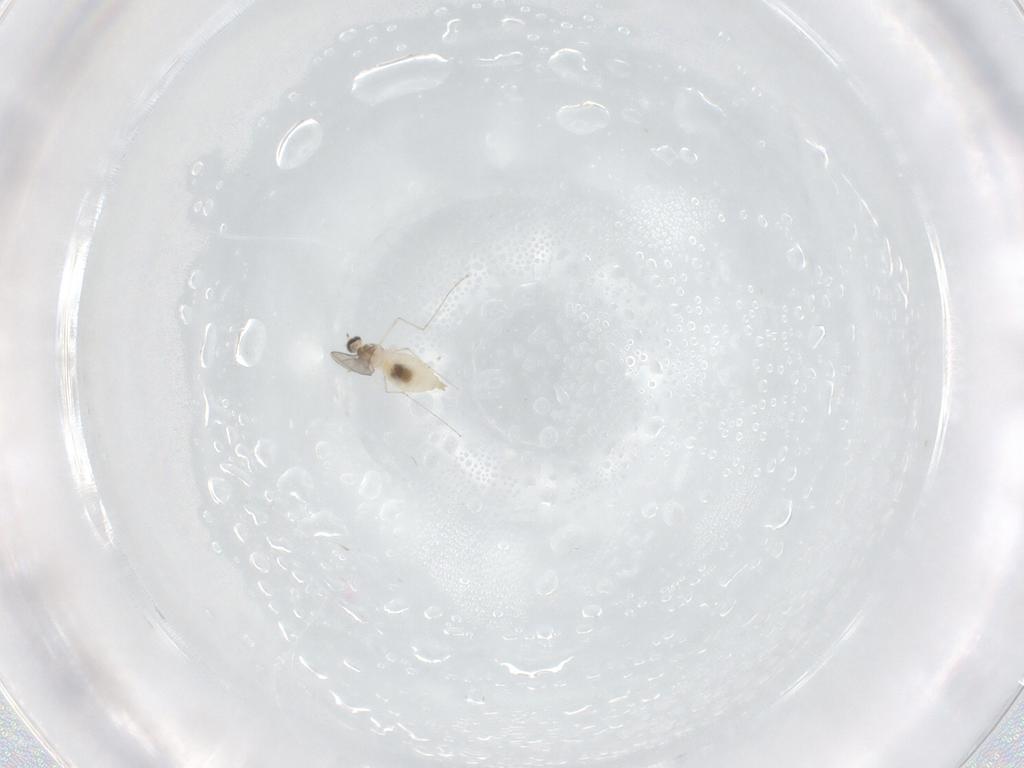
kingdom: Animalia
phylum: Arthropoda
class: Insecta
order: Diptera
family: Cecidomyiidae
